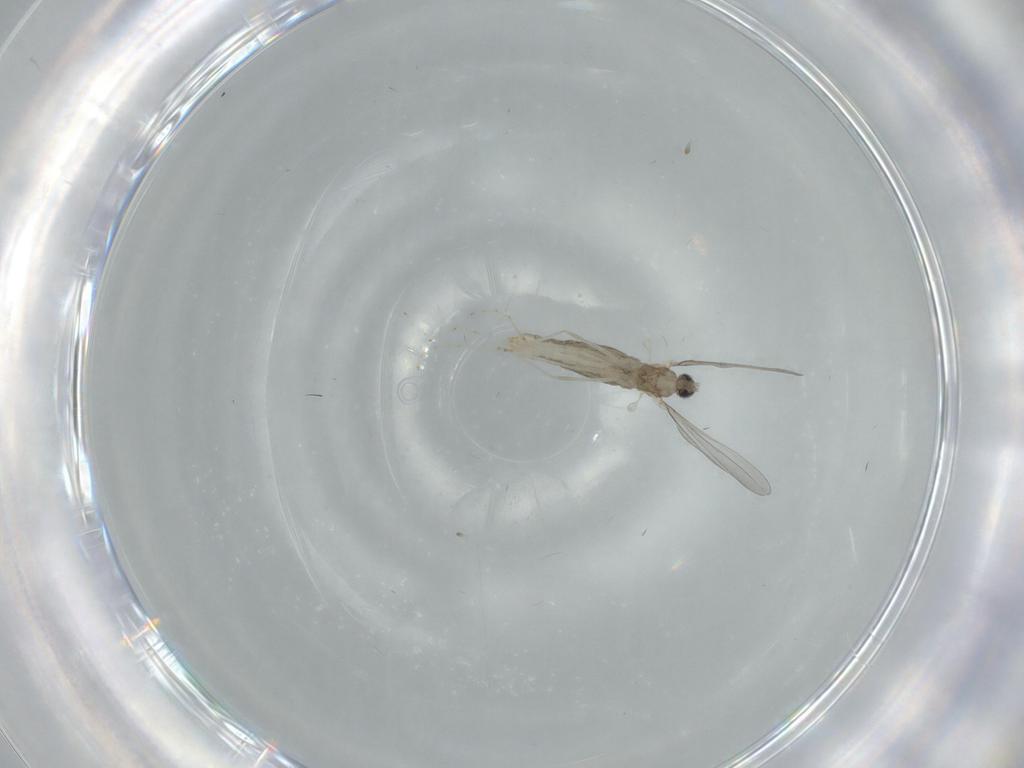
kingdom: Animalia
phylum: Arthropoda
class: Insecta
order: Diptera
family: Cecidomyiidae
